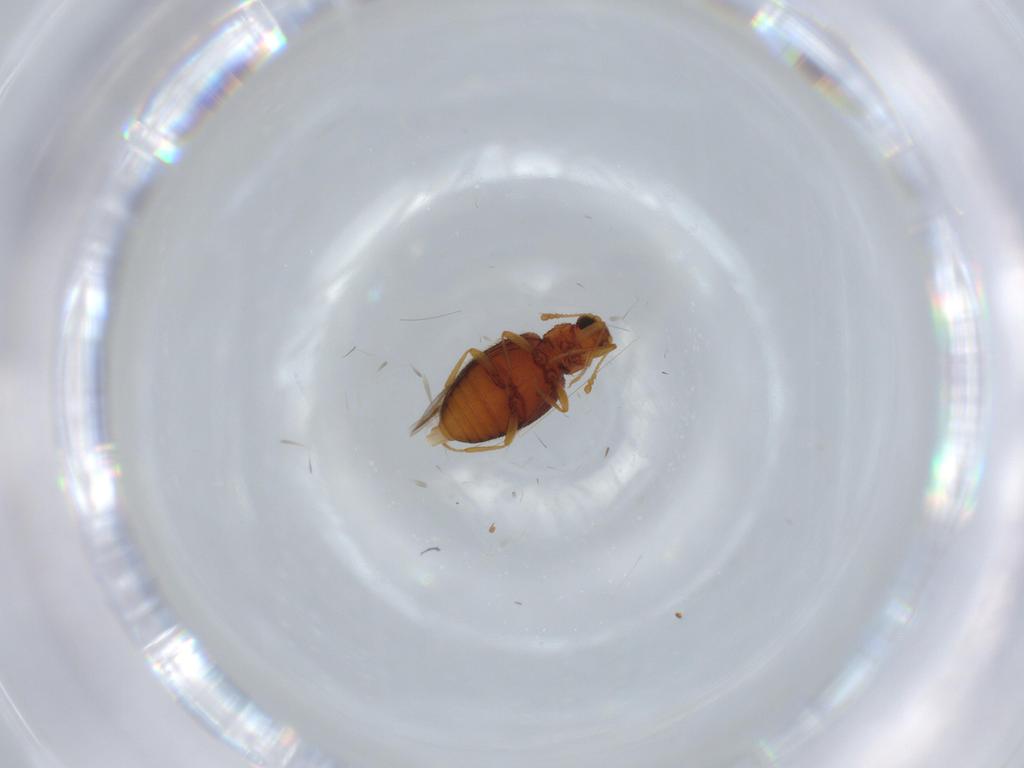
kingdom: Animalia
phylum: Arthropoda
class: Insecta
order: Coleoptera
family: Latridiidae
